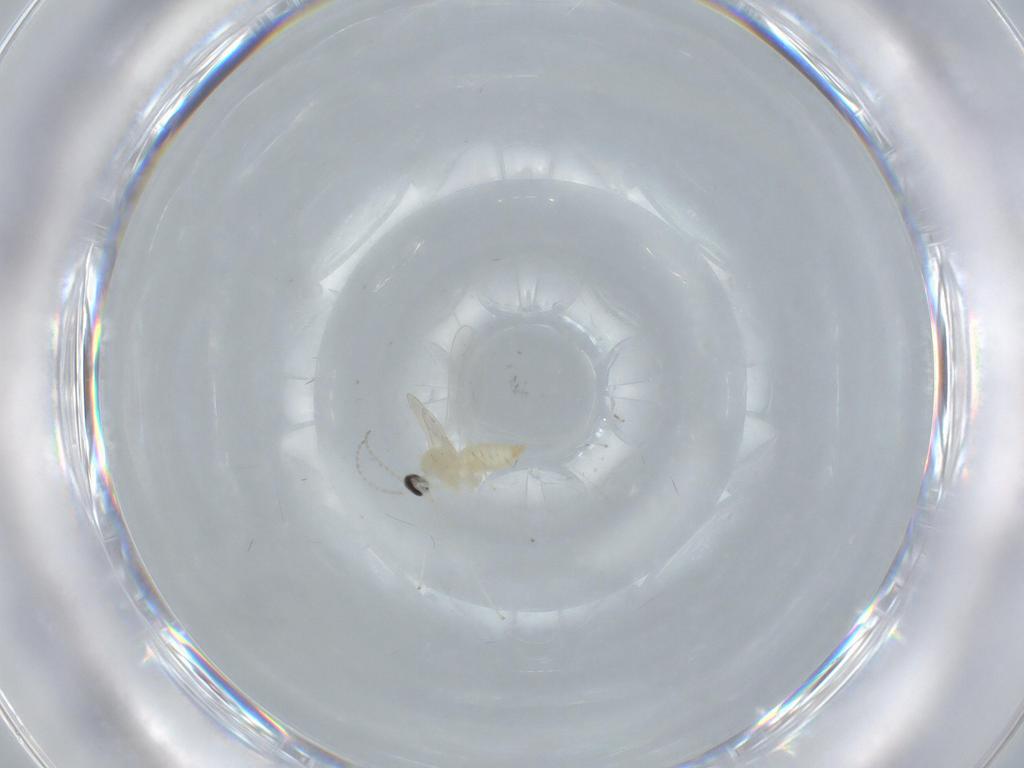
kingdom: Animalia
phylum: Arthropoda
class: Insecta
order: Diptera
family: Cecidomyiidae
